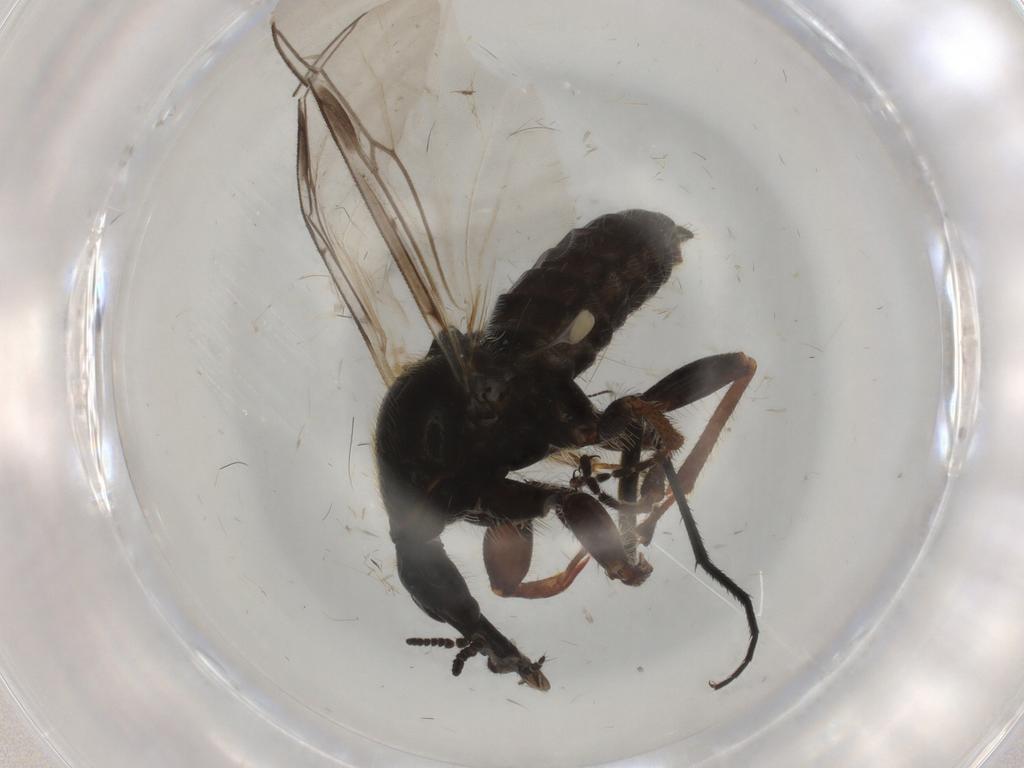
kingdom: Animalia
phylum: Arthropoda
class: Insecta
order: Diptera
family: Bibionidae
